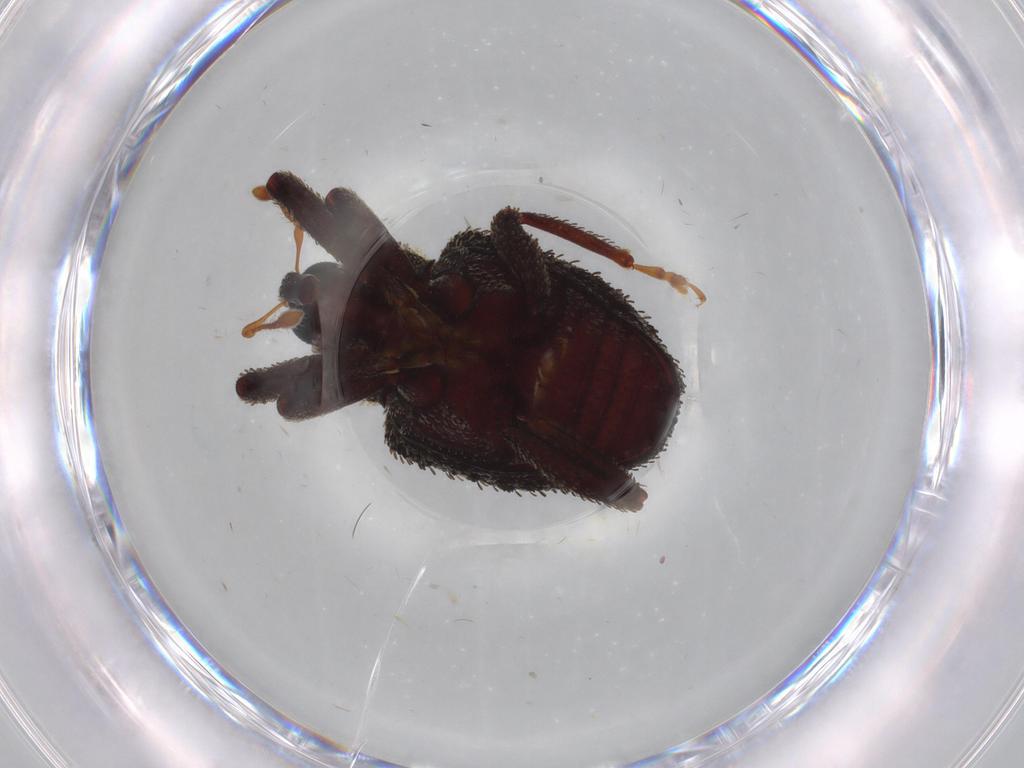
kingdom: Animalia
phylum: Arthropoda
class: Insecta
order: Coleoptera
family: Curculionidae
